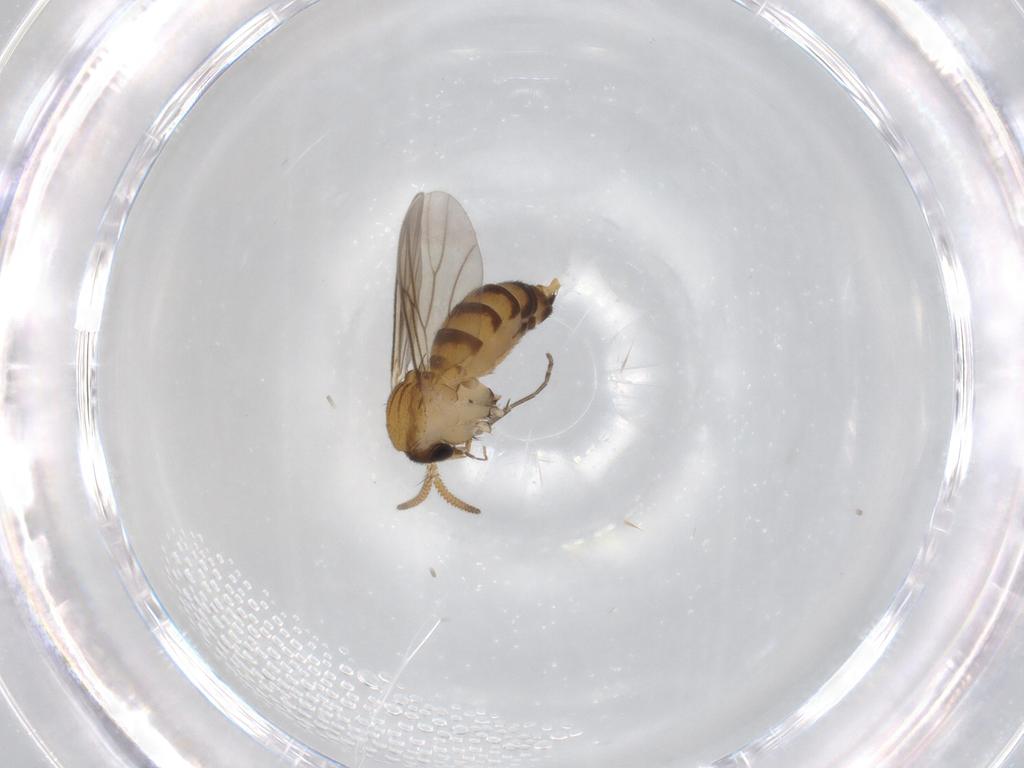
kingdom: Animalia
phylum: Arthropoda
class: Insecta
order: Diptera
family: Mycetophilidae
